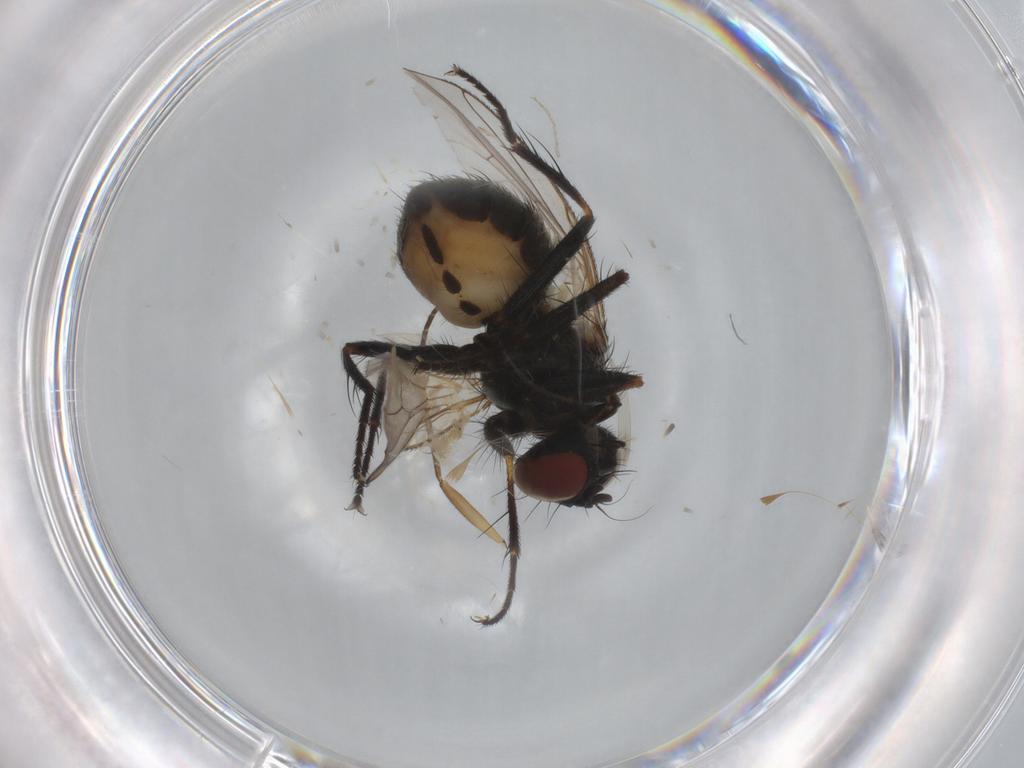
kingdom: Animalia
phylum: Arthropoda
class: Insecta
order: Diptera
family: Muscidae
